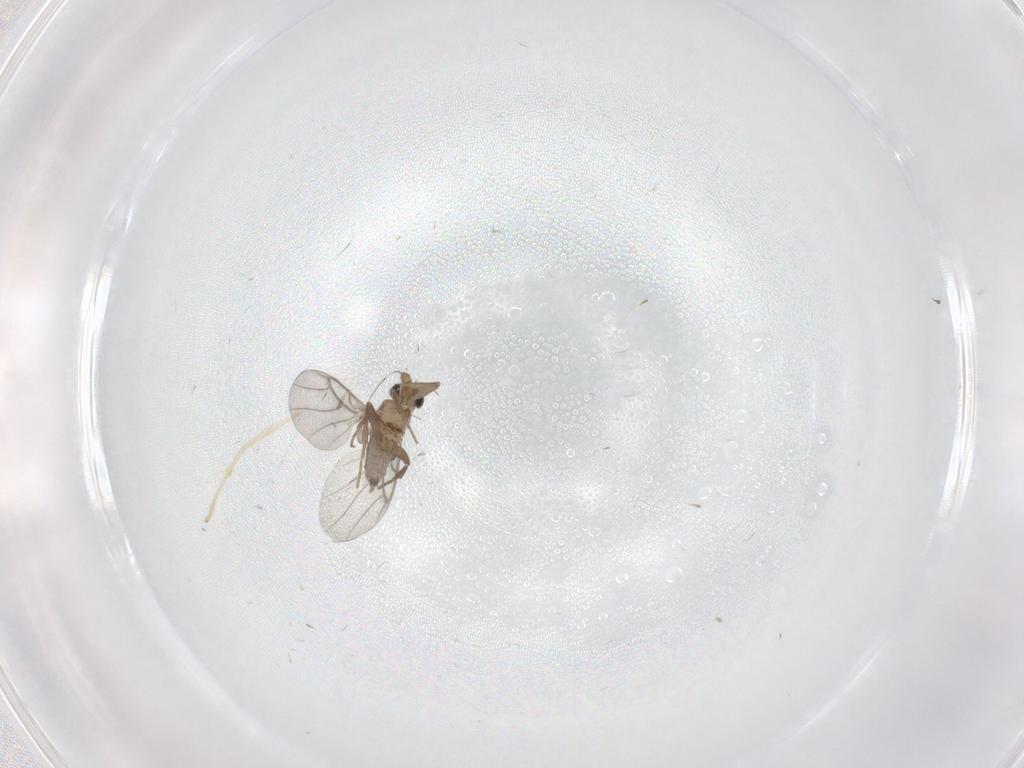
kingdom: Animalia
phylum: Arthropoda
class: Insecta
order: Diptera
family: Chironomidae
